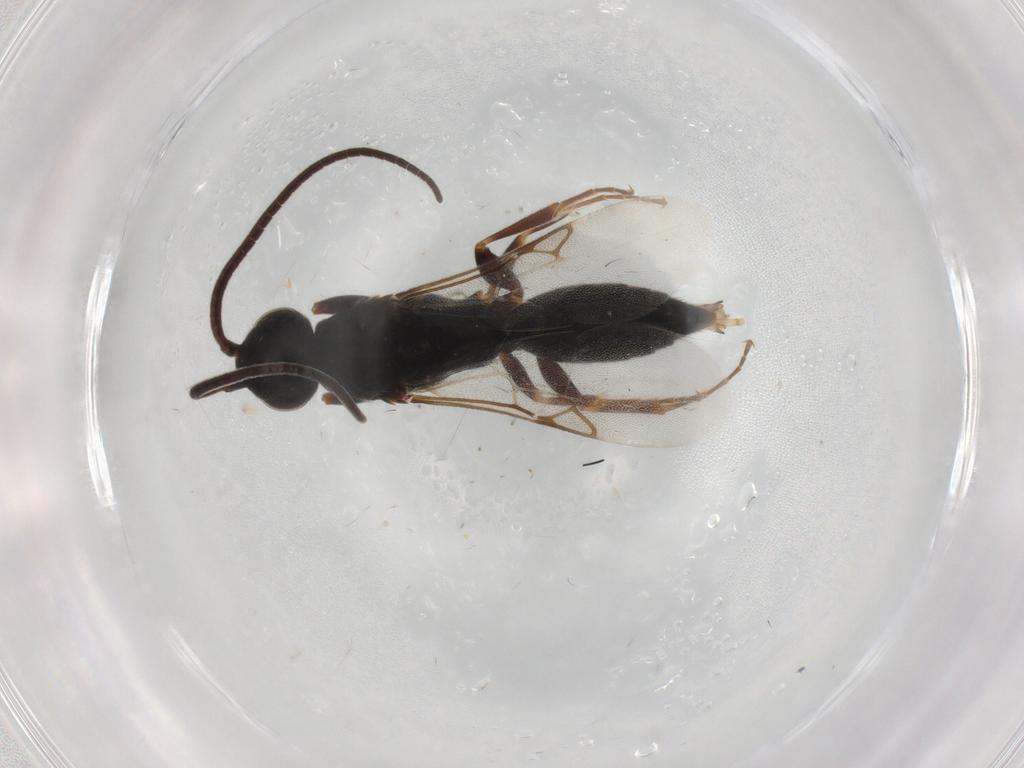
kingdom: Animalia
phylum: Arthropoda
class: Insecta
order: Hymenoptera
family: Sclerogibbidae
